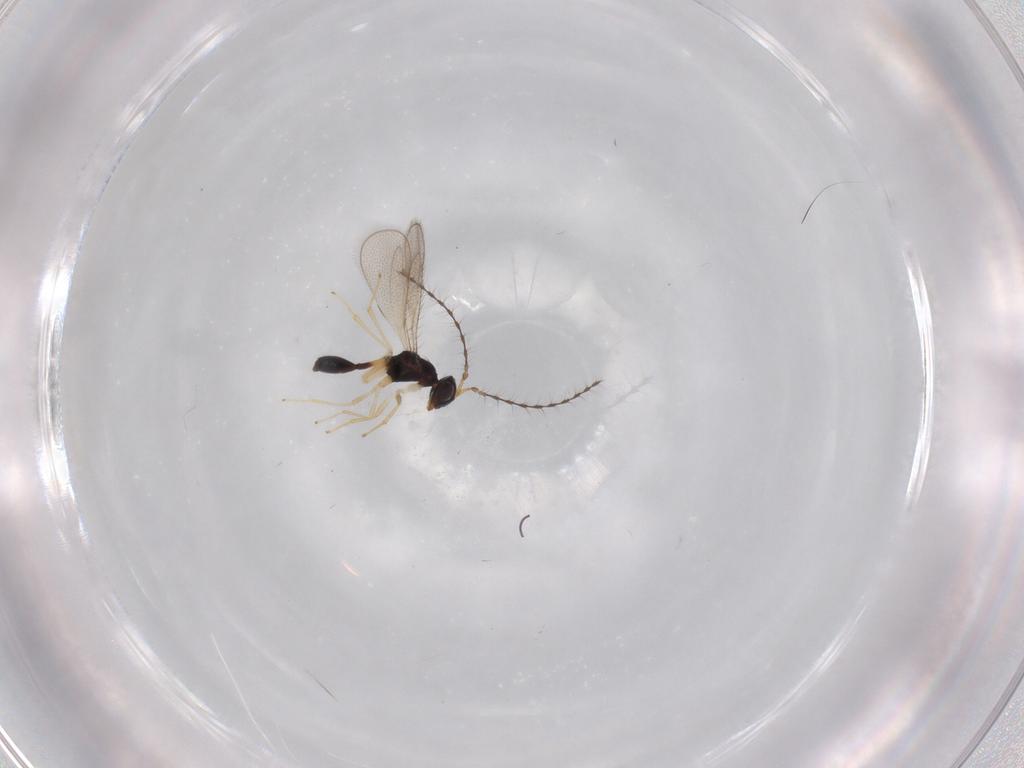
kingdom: Animalia
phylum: Arthropoda
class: Insecta
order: Hymenoptera
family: Diparidae
